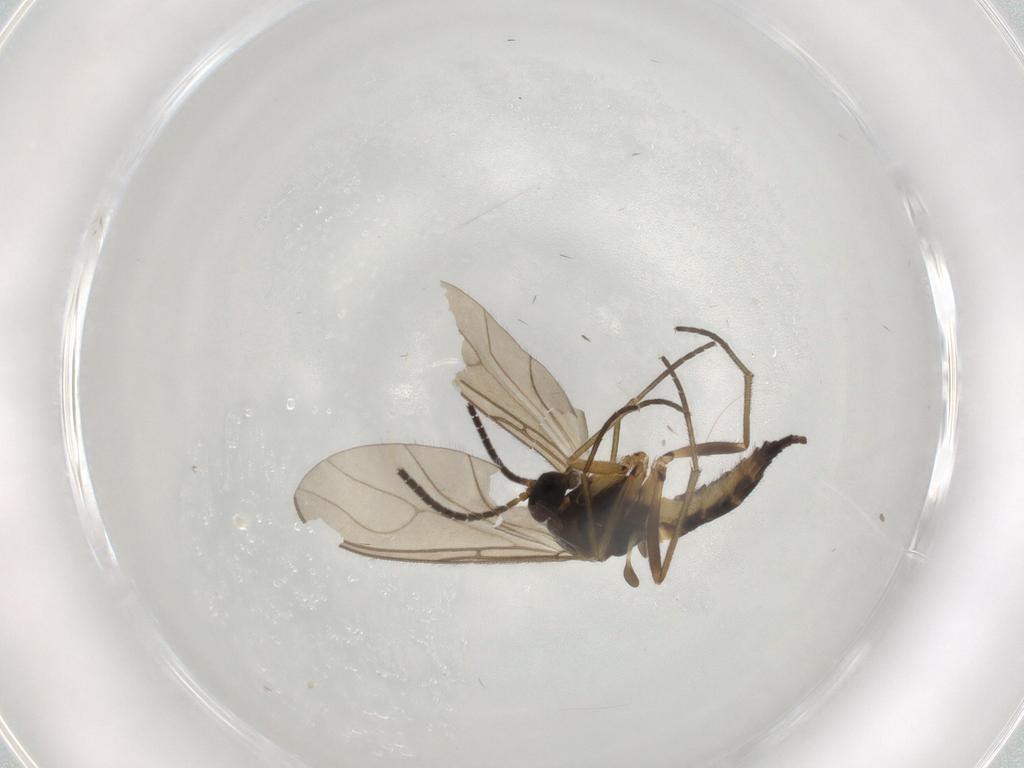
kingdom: Animalia
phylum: Arthropoda
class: Insecta
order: Diptera
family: Sciaridae
